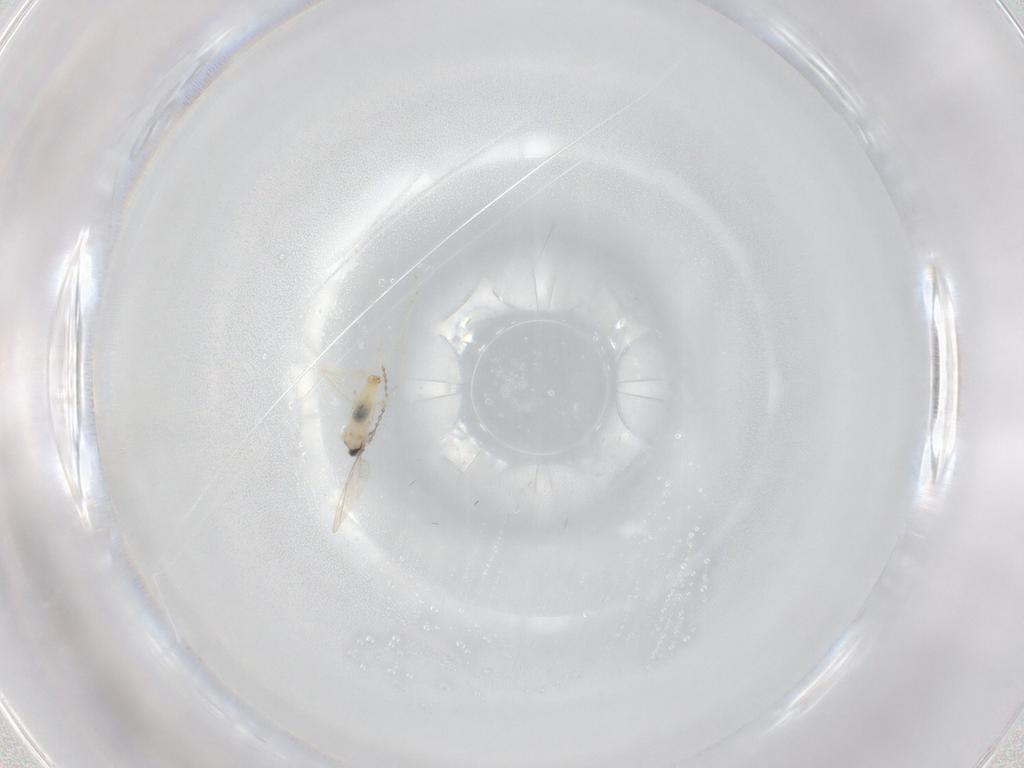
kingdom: Animalia
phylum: Arthropoda
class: Insecta
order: Diptera
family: Cecidomyiidae
